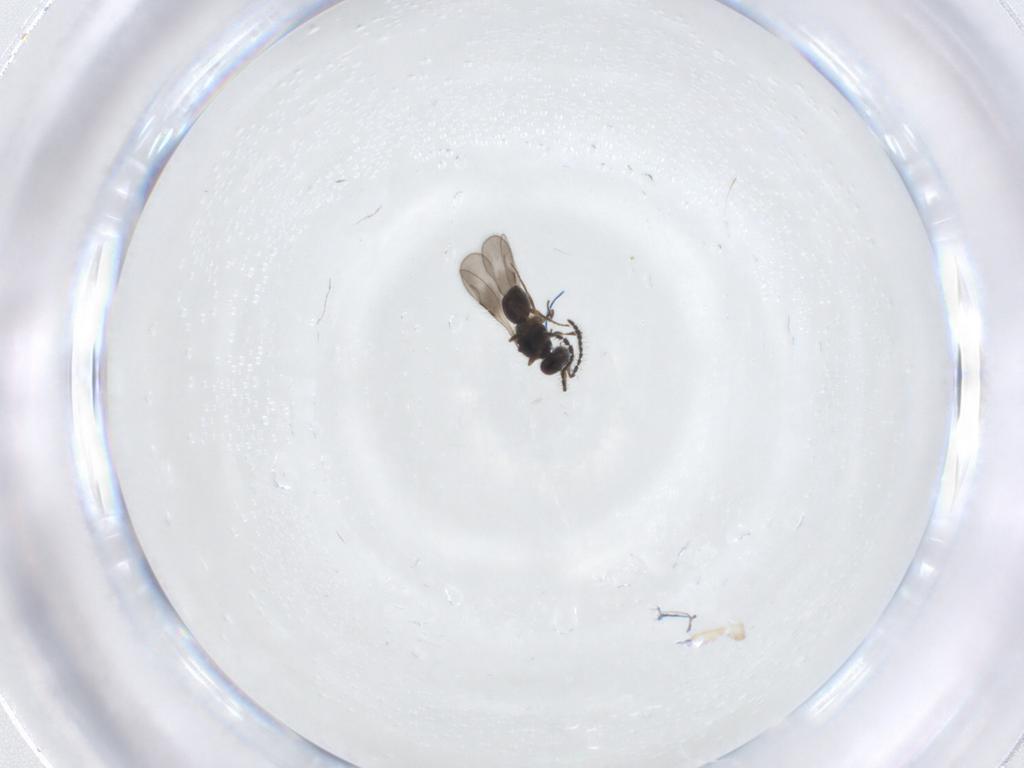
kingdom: Animalia
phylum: Arthropoda
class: Insecta
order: Hymenoptera
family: Ceraphronidae
